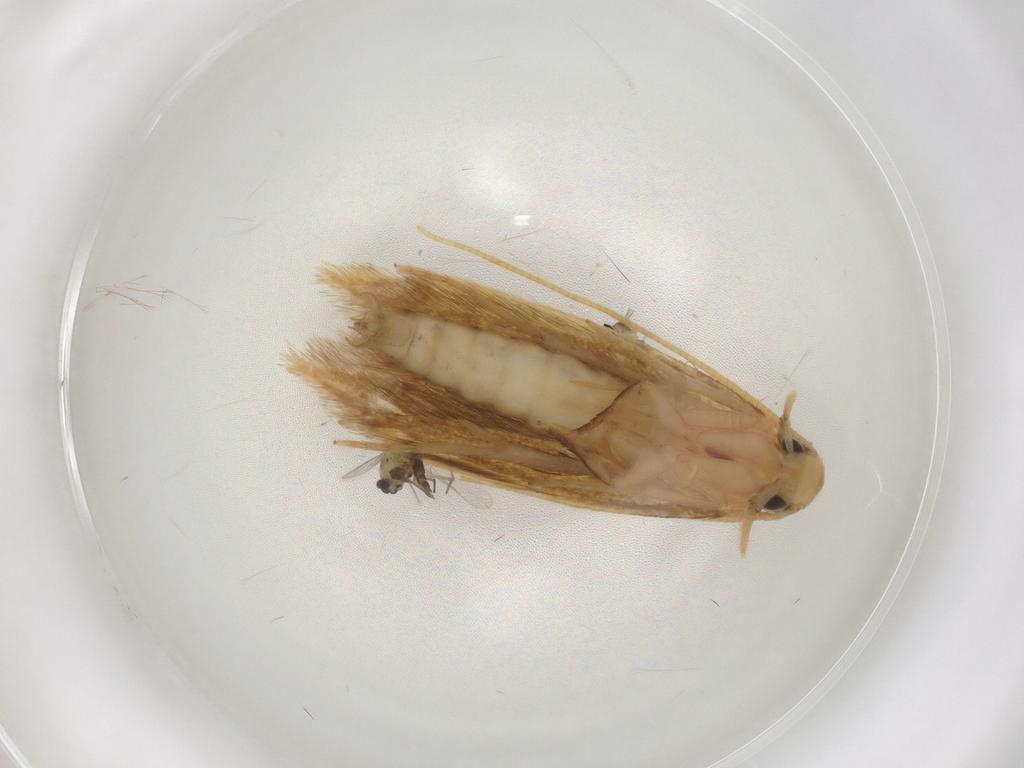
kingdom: Animalia
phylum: Arthropoda
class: Insecta
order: Diptera
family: Cecidomyiidae
